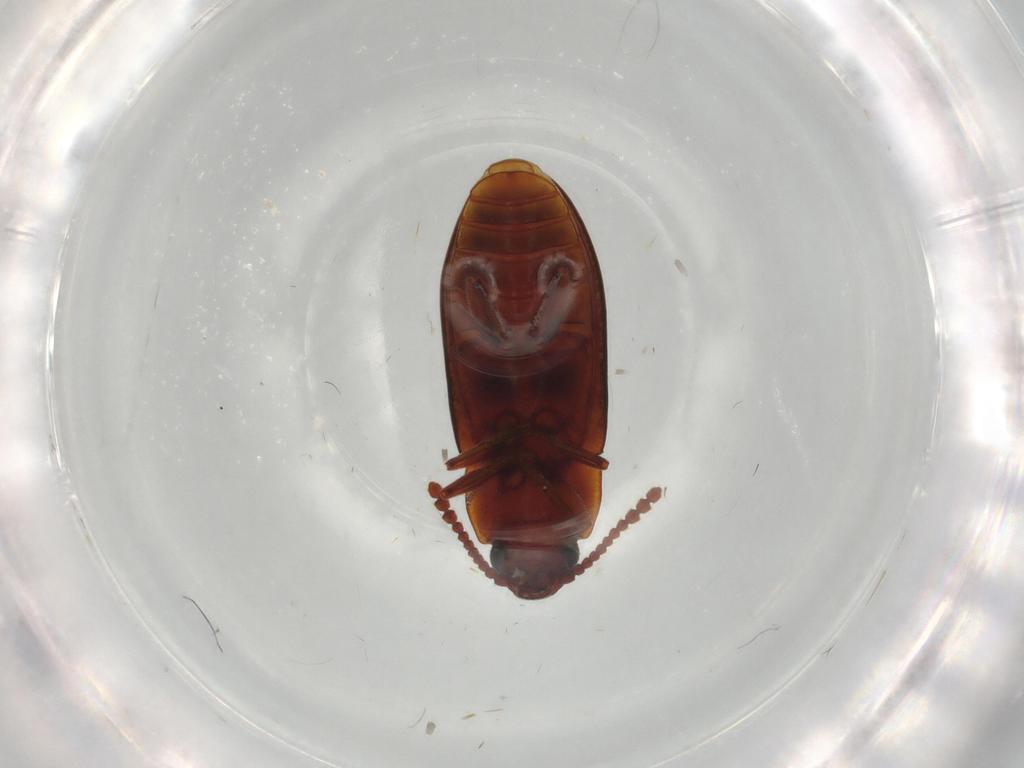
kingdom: Animalia
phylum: Arthropoda
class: Insecta
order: Coleoptera
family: Erotylidae
